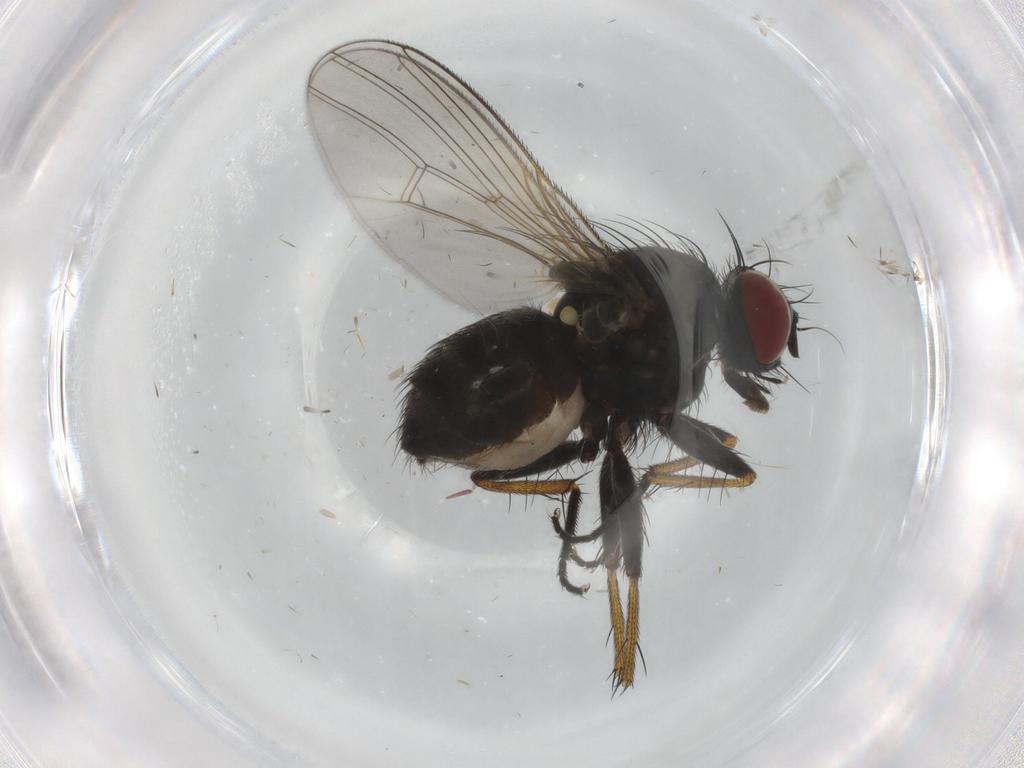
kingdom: Animalia
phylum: Arthropoda
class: Insecta
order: Diptera
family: Muscidae
